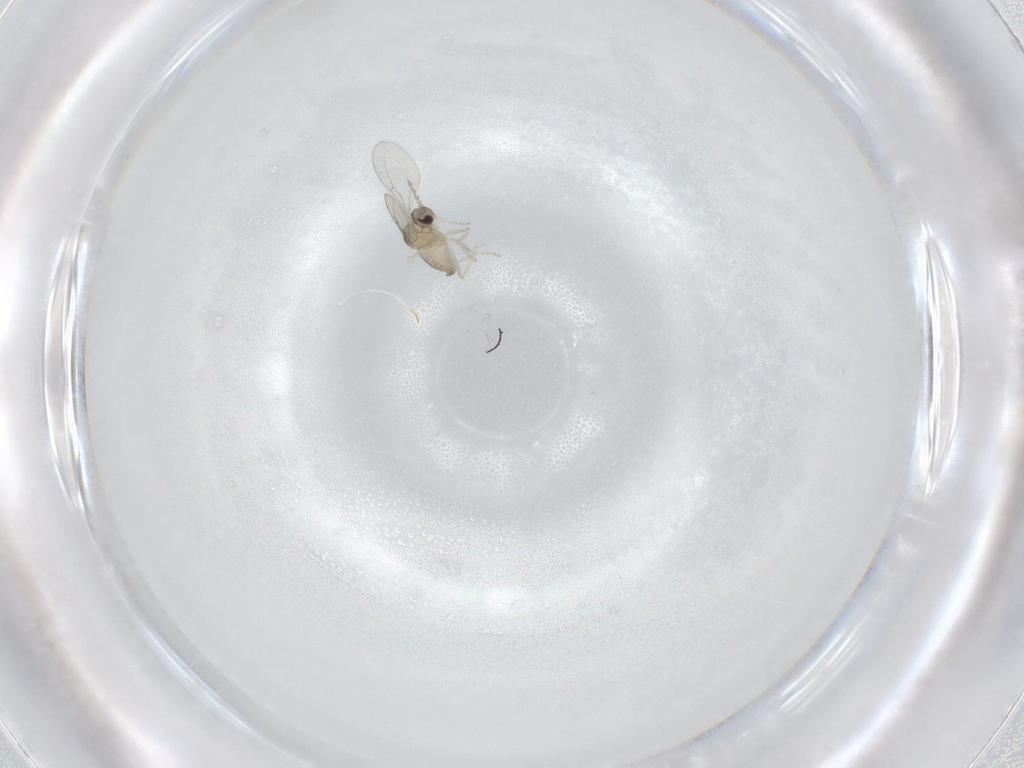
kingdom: Animalia
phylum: Arthropoda
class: Insecta
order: Diptera
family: Cecidomyiidae
